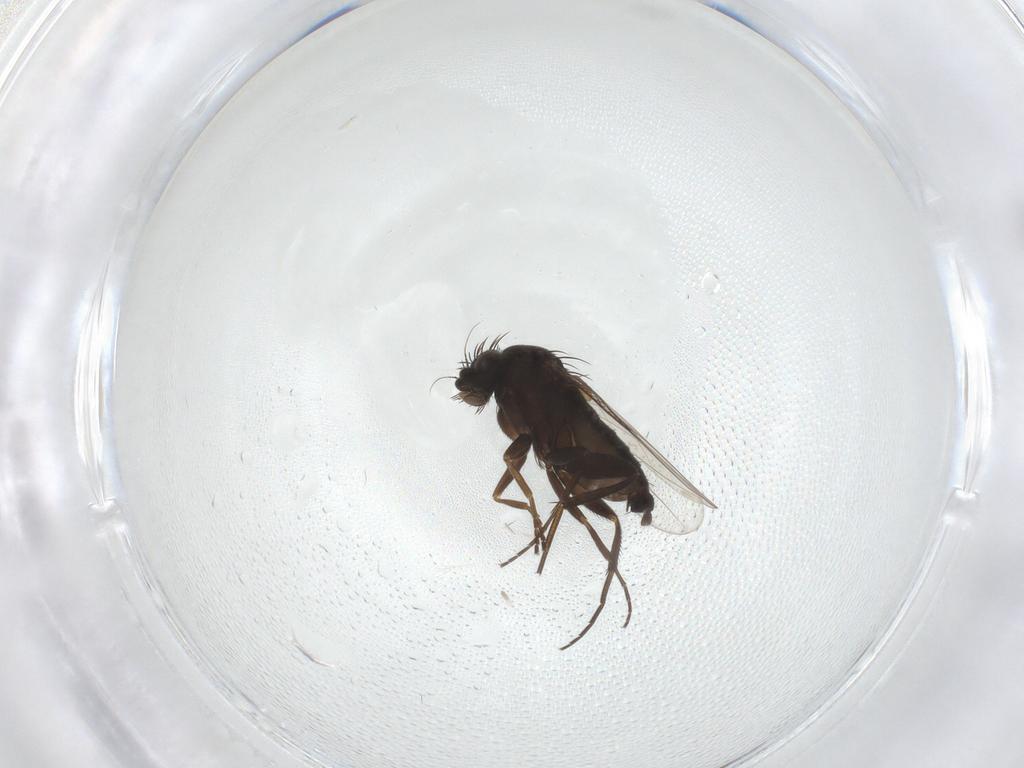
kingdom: Animalia
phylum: Arthropoda
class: Insecta
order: Diptera
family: Phoridae
